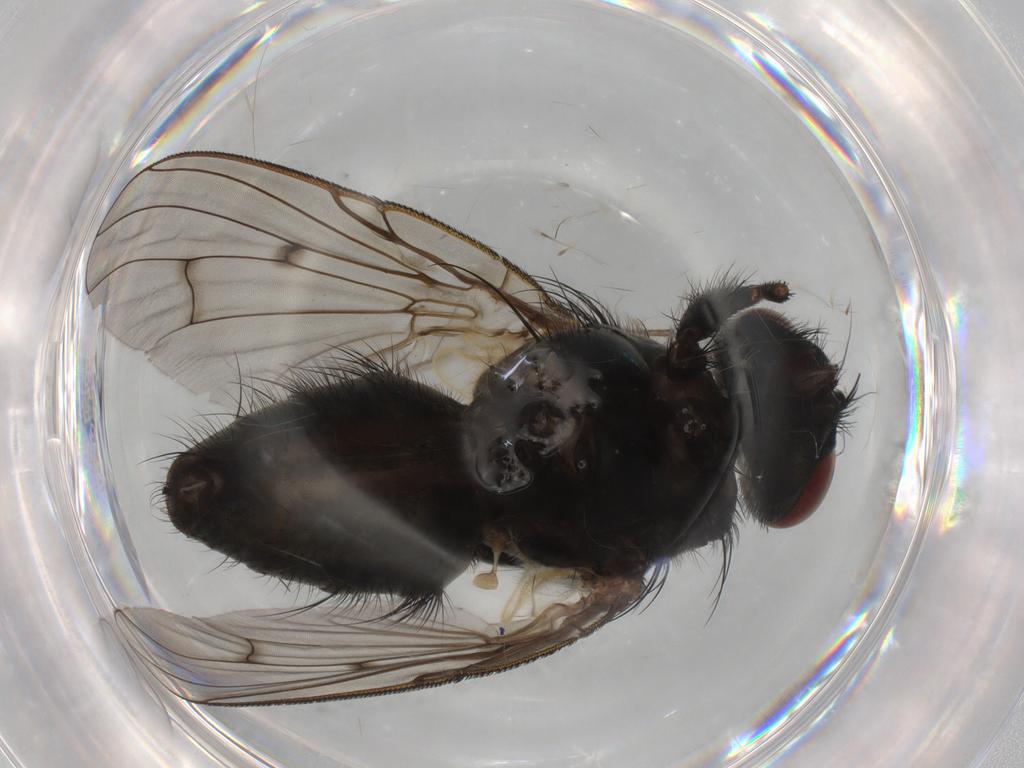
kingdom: Animalia
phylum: Arthropoda
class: Insecta
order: Diptera
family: Muscidae
